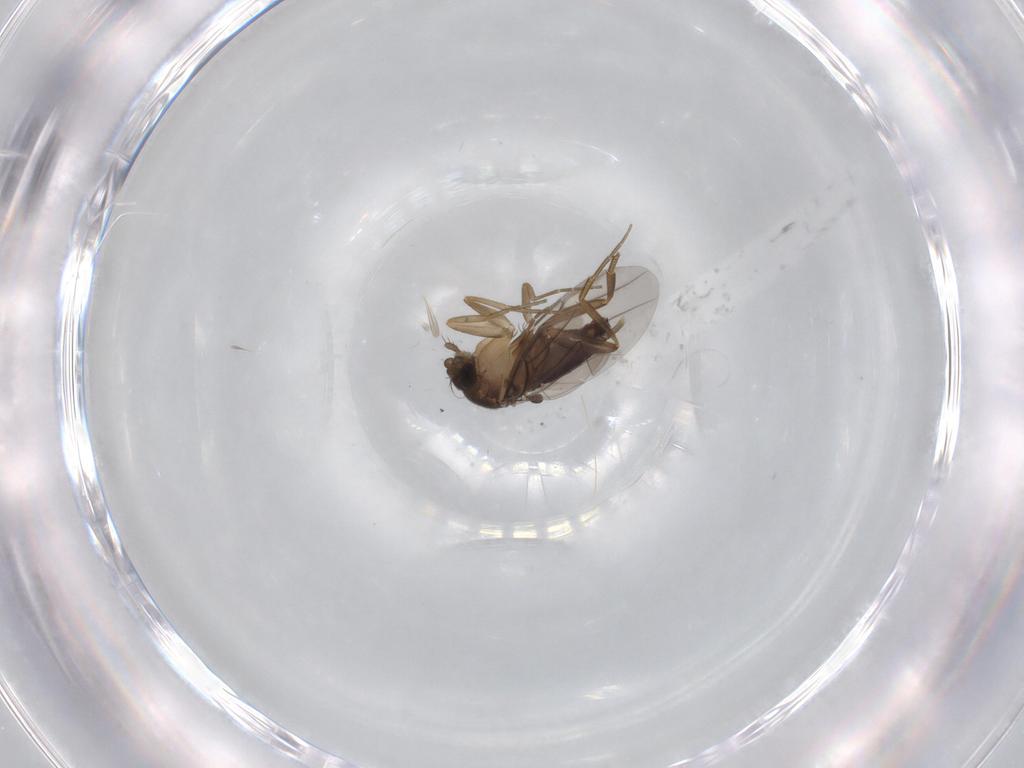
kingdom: Animalia
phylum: Arthropoda
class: Insecta
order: Diptera
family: Phoridae
